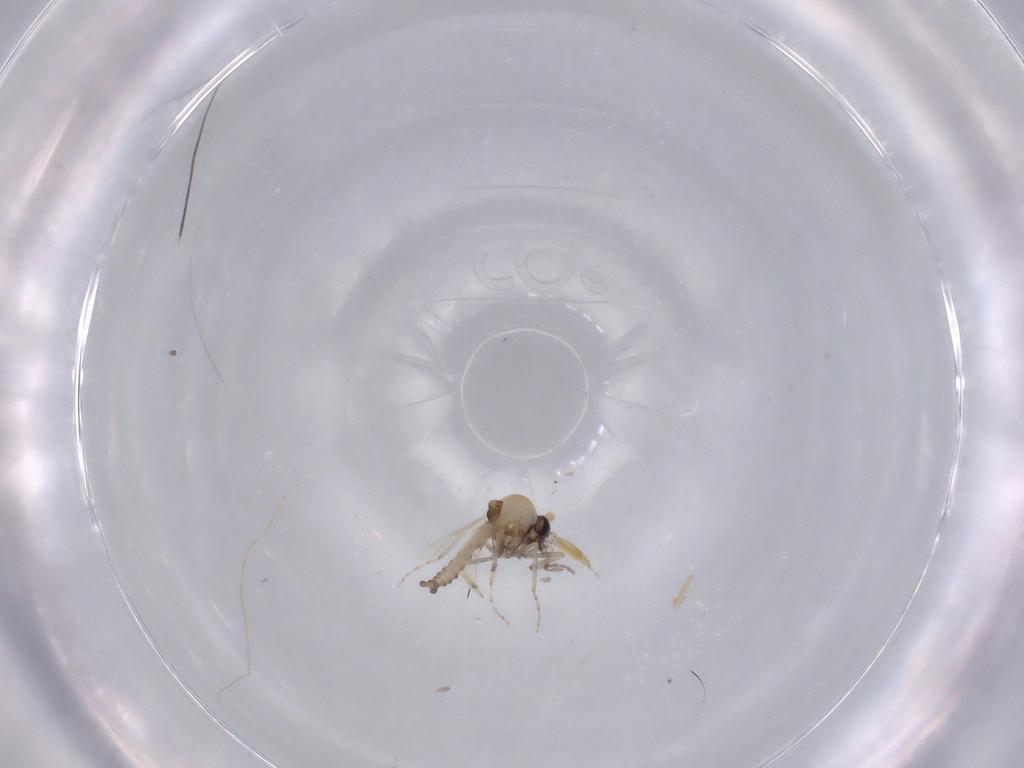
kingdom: Animalia
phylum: Arthropoda
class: Insecta
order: Diptera
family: Ceratopogonidae
